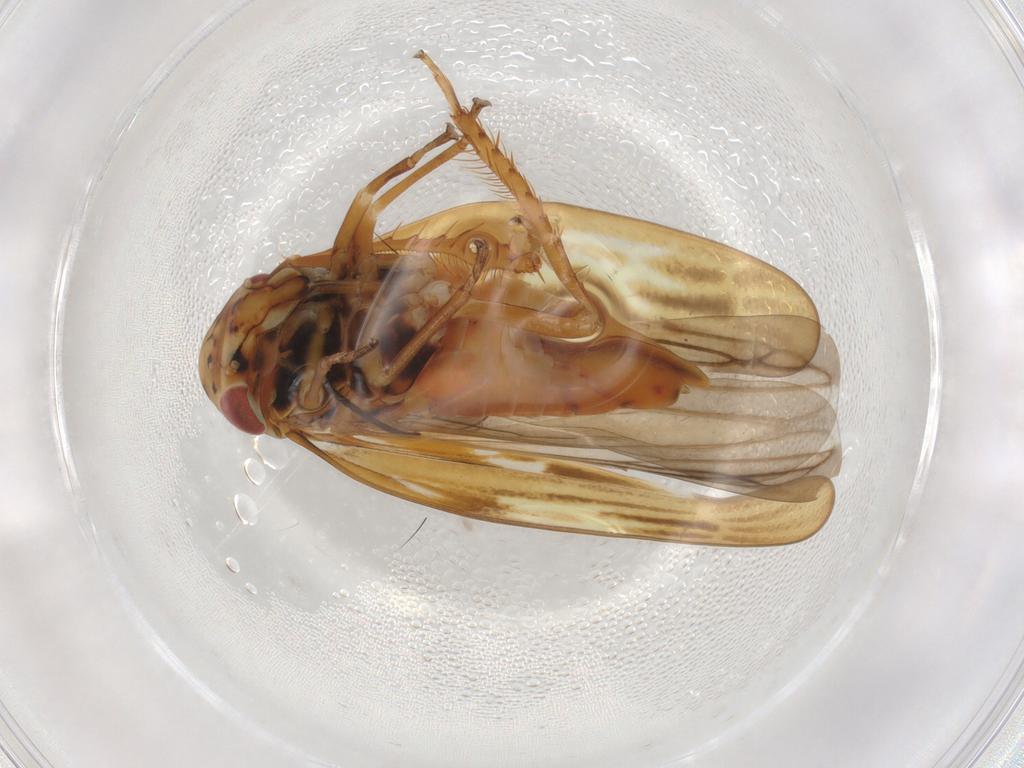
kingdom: Animalia
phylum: Arthropoda
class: Insecta
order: Hemiptera
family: Cicadellidae
